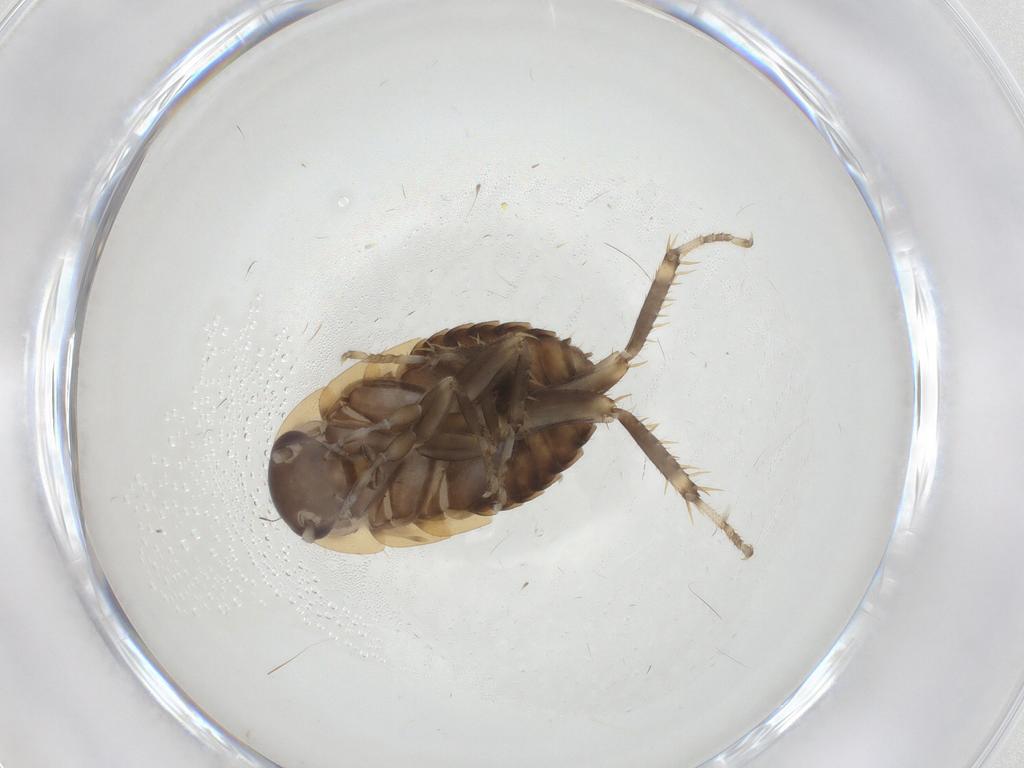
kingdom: Animalia
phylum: Arthropoda
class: Insecta
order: Blattodea
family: Ectobiidae
